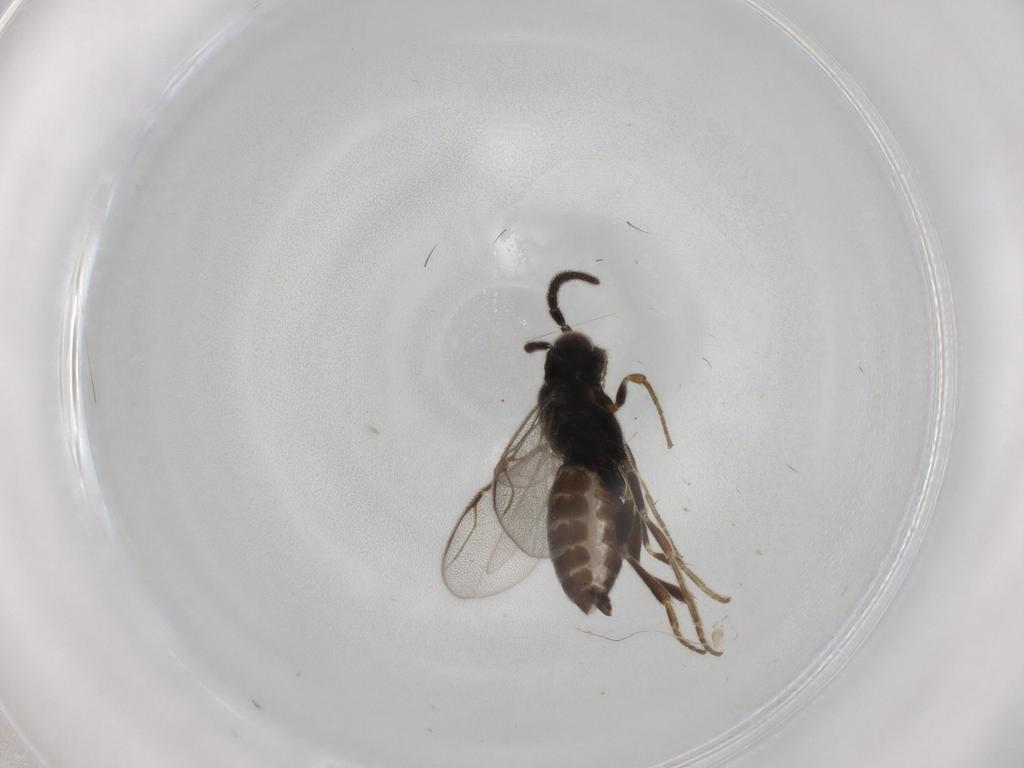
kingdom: Animalia
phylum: Arthropoda
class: Insecta
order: Hymenoptera
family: Dryinidae
